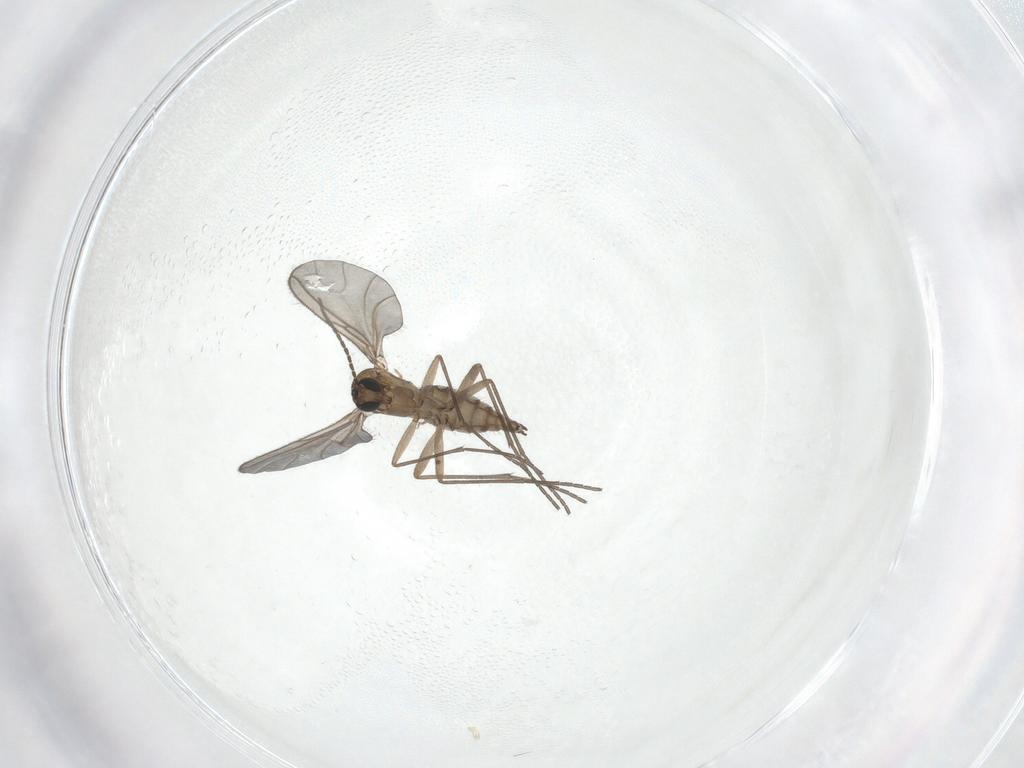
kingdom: Animalia
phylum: Arthropoda
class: Insecta
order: Diptera
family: Sciaridae
